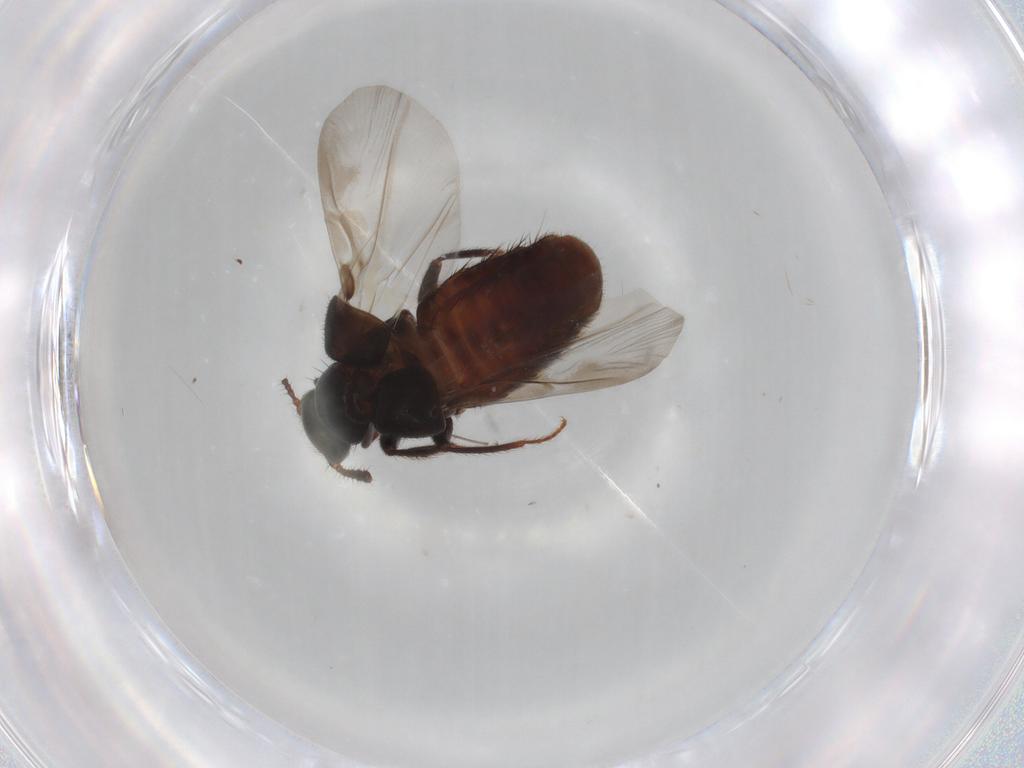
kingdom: Animalia
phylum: Arthropoda
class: Insecta
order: Coleoptera
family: Staphylinidae
